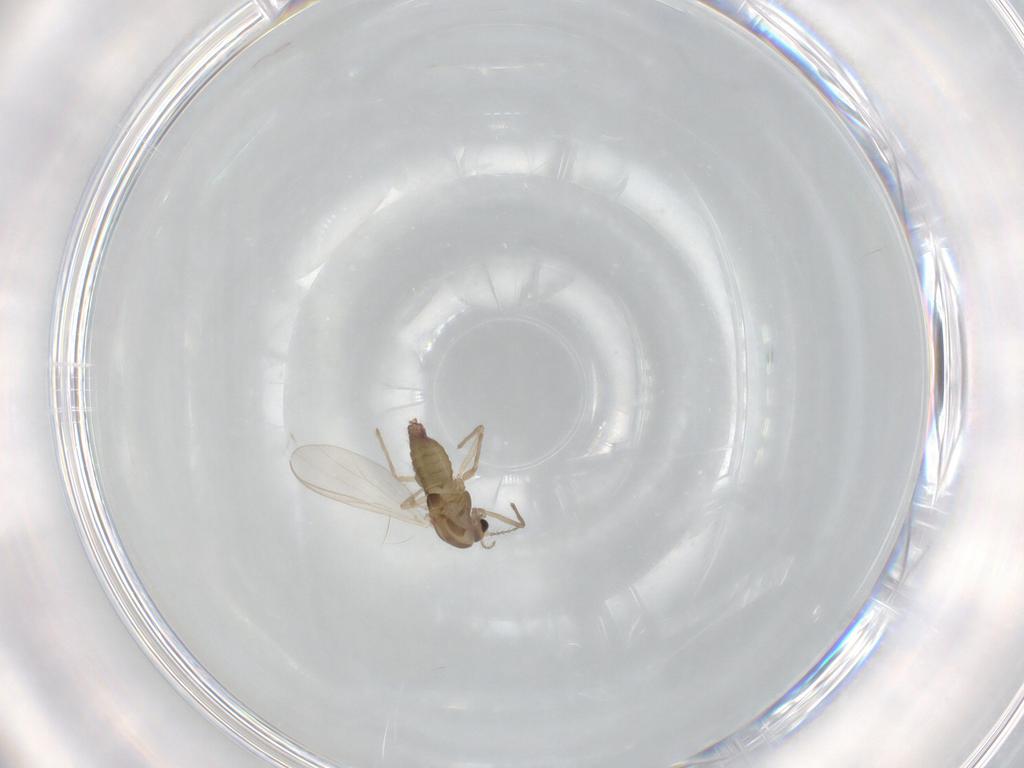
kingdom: Animalia
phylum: Arthropoda
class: Insecta
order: Diptera
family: Chironomidae
